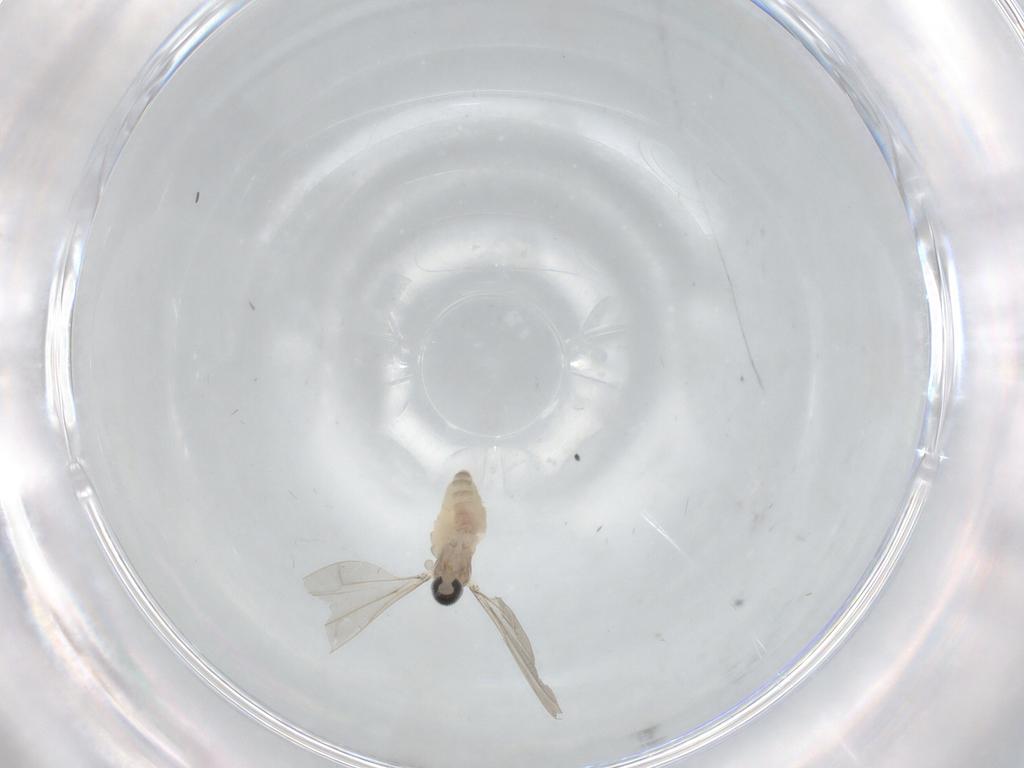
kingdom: Animalia
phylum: Arthropoda
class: Insecta
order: Diptera
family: Cecidomyiidae
